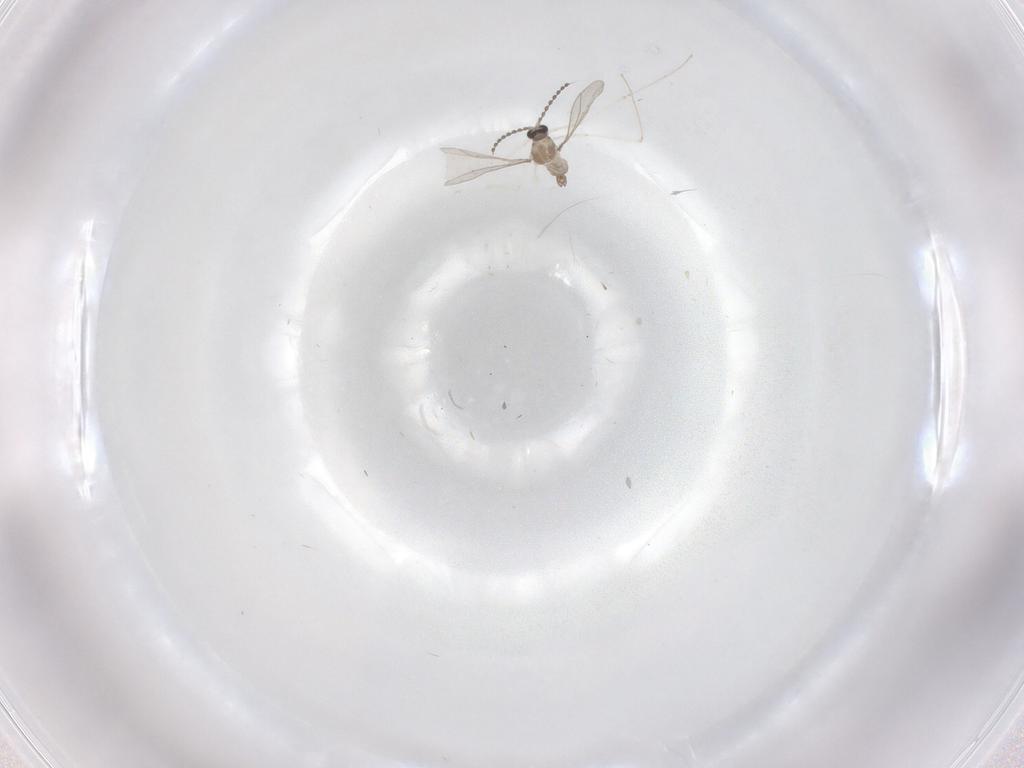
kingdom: Animalia
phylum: Arthropoda
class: Insecta
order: Diptera
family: Cecidomyiidae
